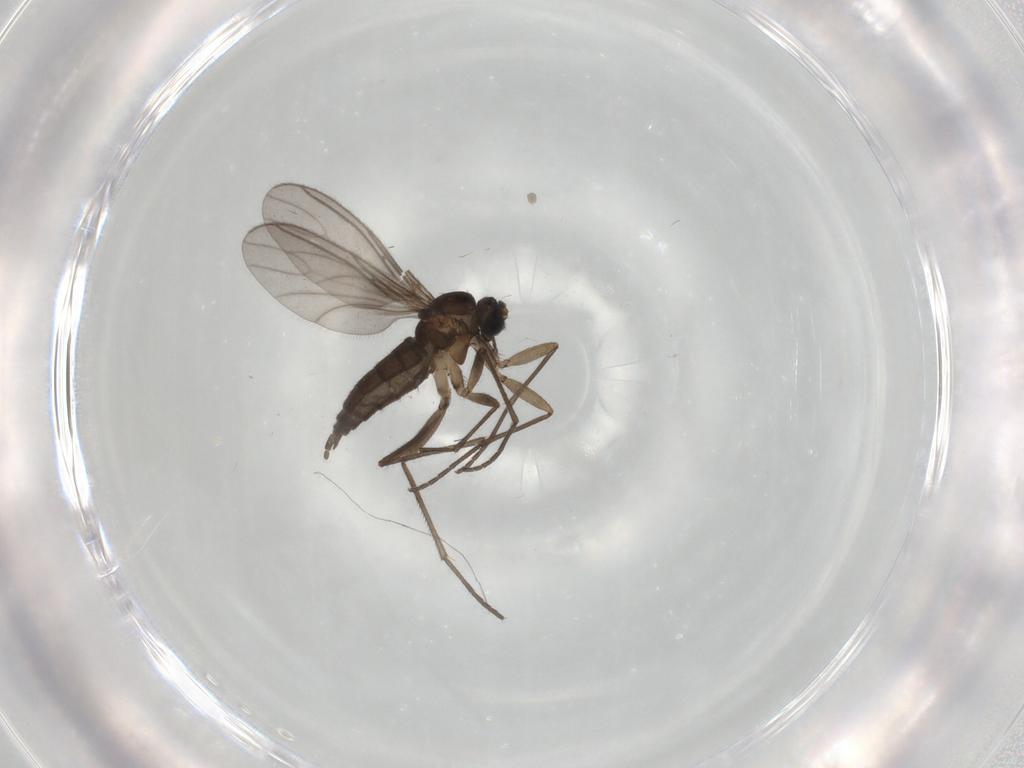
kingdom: Animalia
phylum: Arthropoda
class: Insecta
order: Diptera
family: Sciaridae
